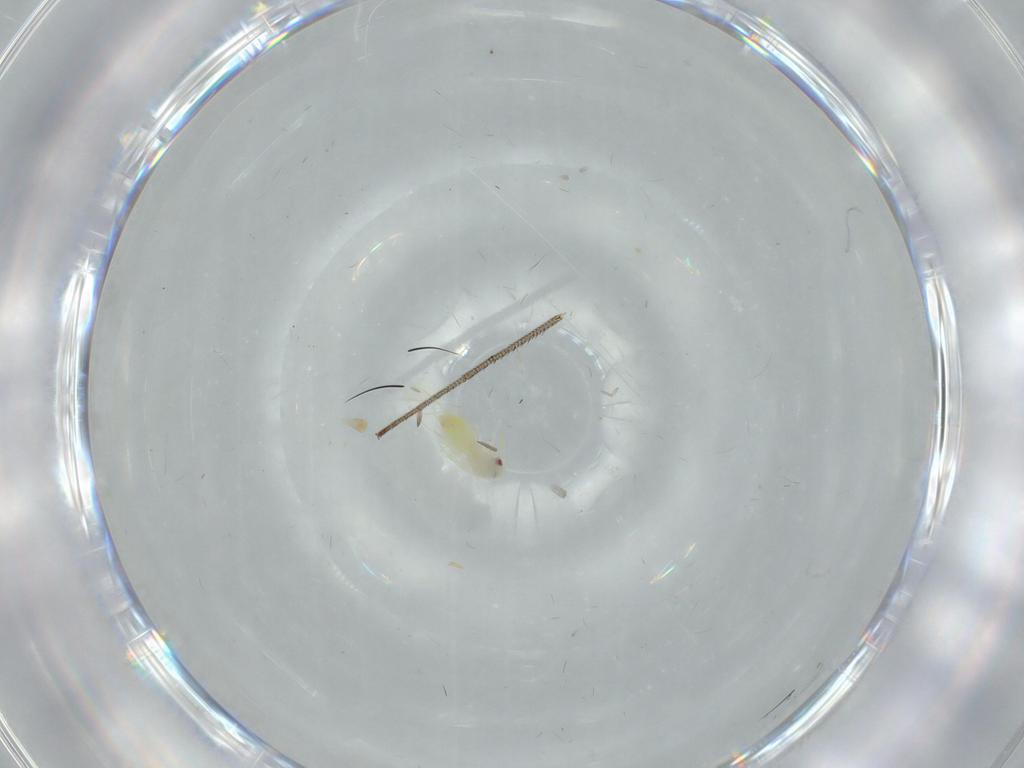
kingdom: Animalia
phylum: Arthropoda
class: Insecta
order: Hemiptera
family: Aleyrodidae
